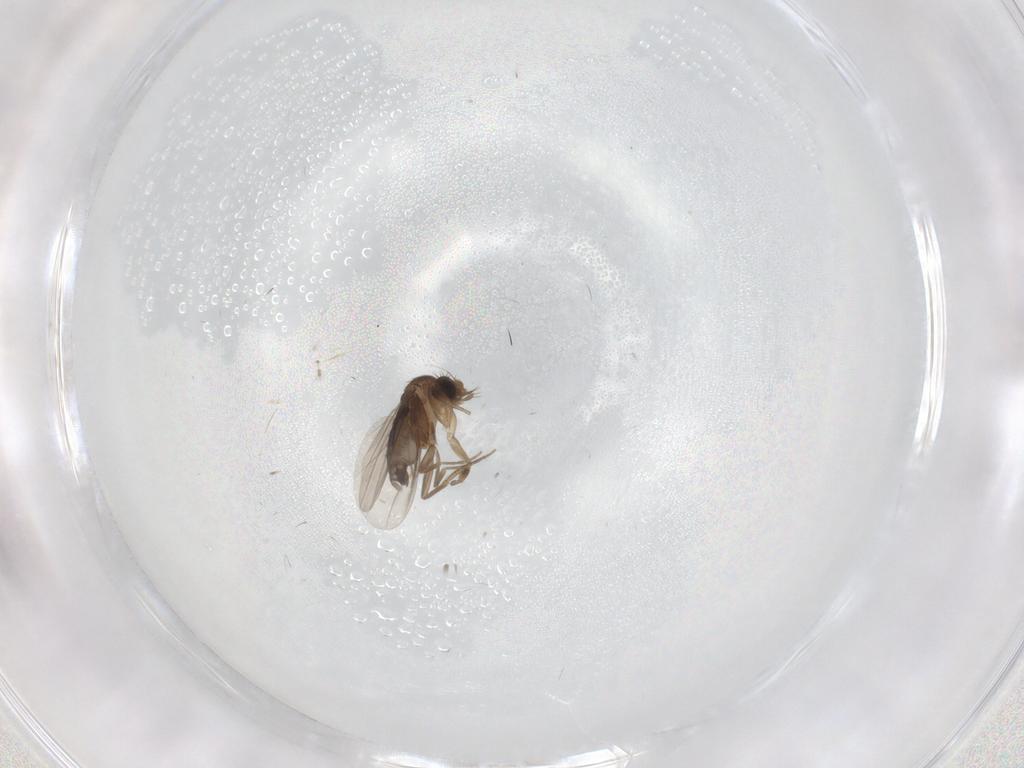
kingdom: Animalia
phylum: Arthropoda
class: Insecta
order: Diptera
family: Phoridae
